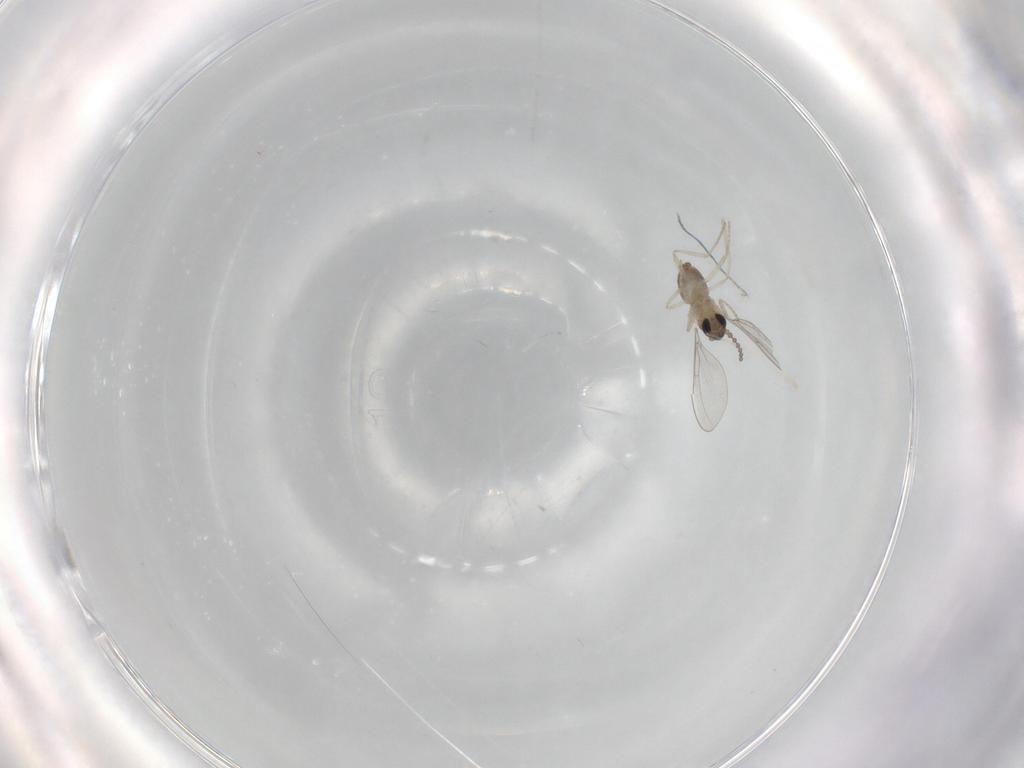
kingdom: Animalia
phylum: Arthropoda
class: Insecta
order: Diptera
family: Cecidomyiidae
